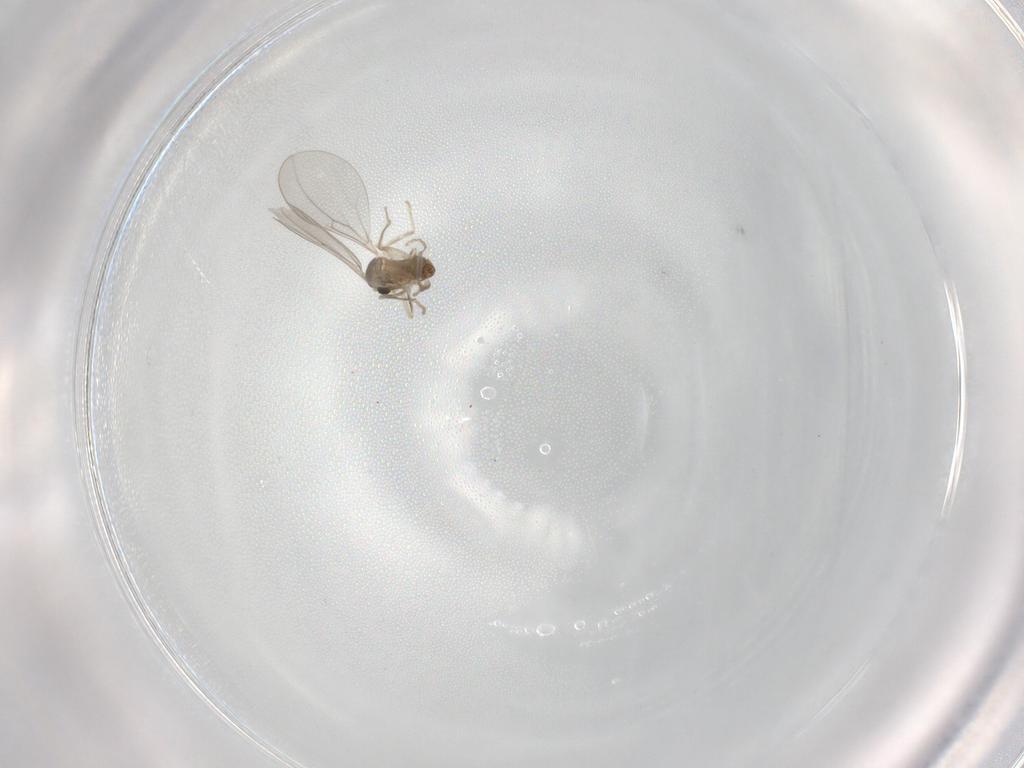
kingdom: Animalia
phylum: Arthropoda
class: Insecta
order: Diptera
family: Cecidomyiidae
